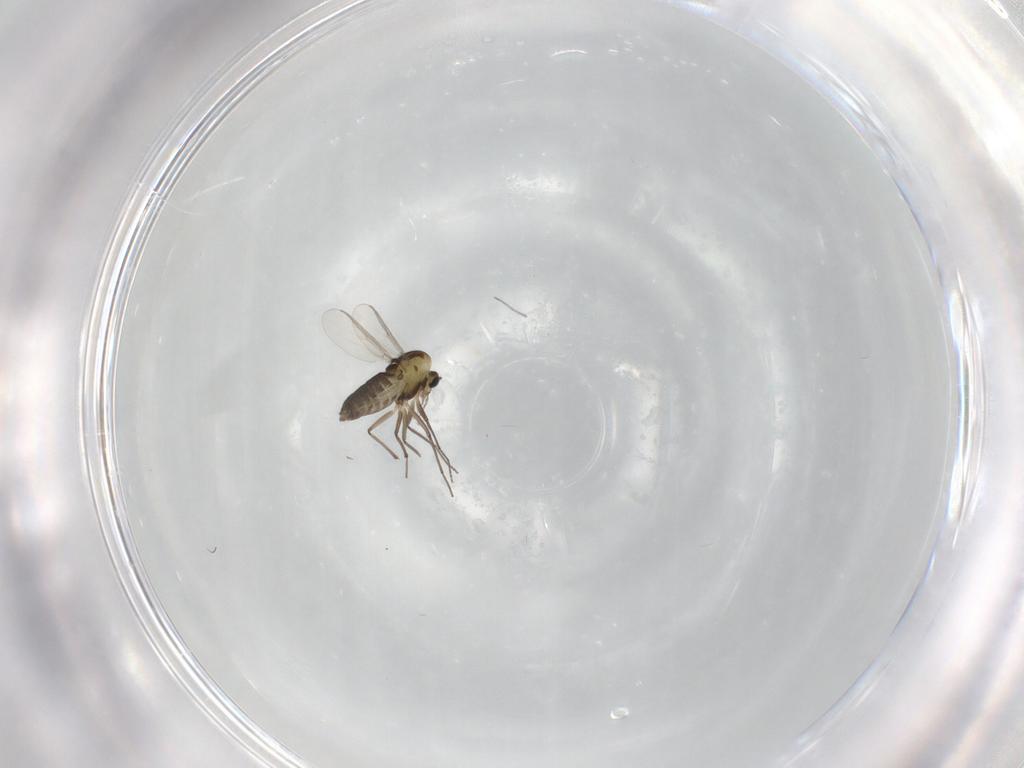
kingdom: Animalia
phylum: Arthropoda
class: Insecta
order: Diptera
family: Chironomidae
